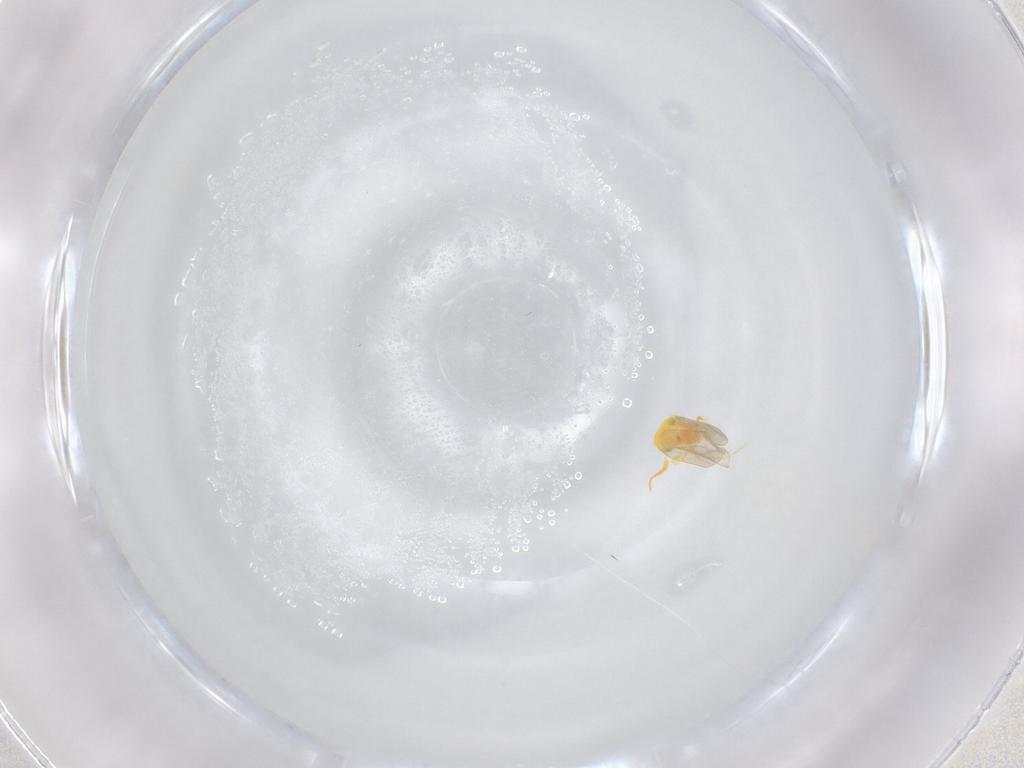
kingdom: Animalia
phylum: Arthropoda
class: Insecta
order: Hemiptera
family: Aleyrodidae
